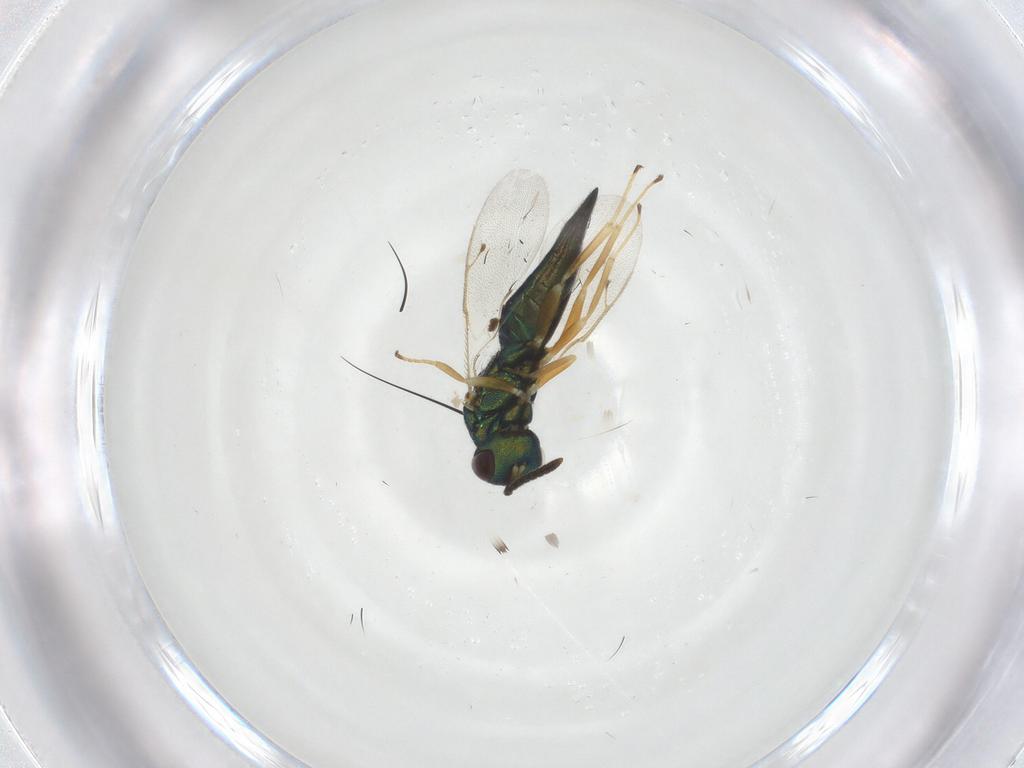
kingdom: Animalia
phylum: Arthropoda
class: Insecta
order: Hymenoptera
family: Pteromalidae
